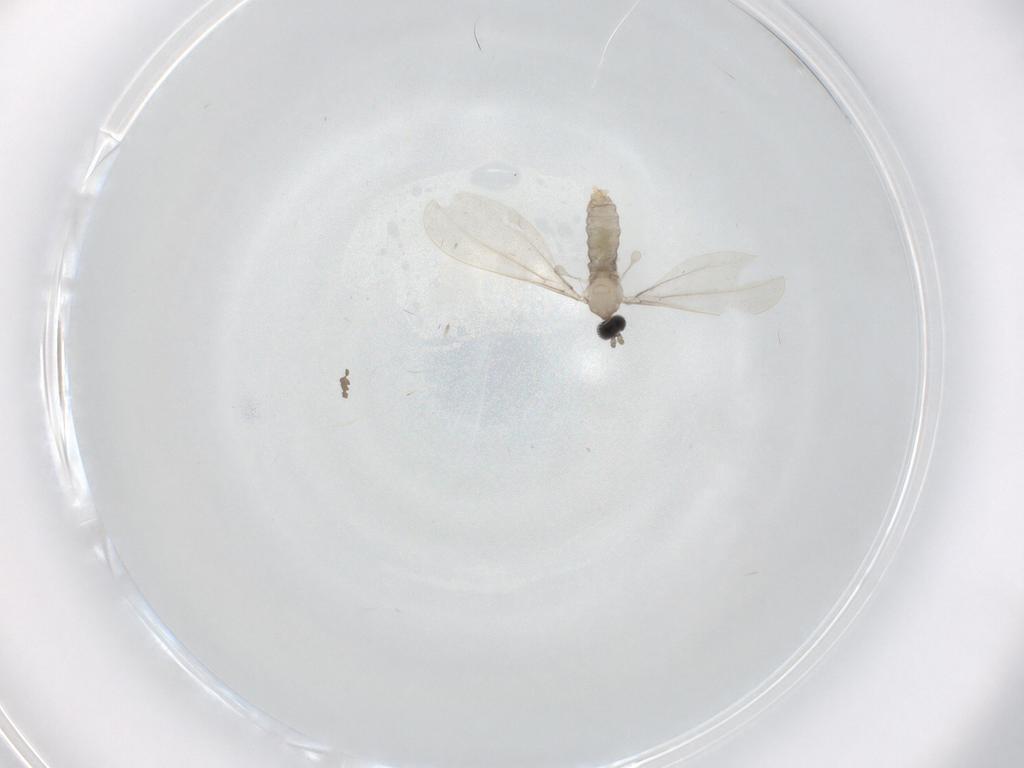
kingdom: Animalia
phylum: Arthropoda
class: Insecta
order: Diptera
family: Cecidomyiidae
